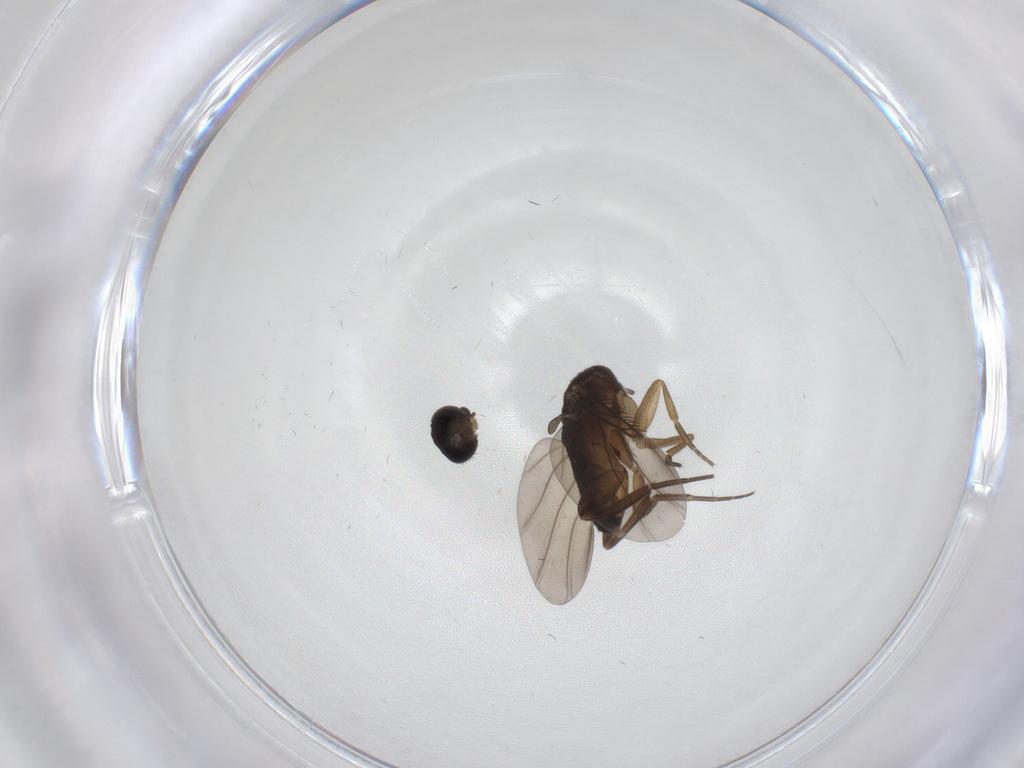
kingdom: Animalia
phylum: Arthropoda
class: Insecta
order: Diptera
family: Phoridae
